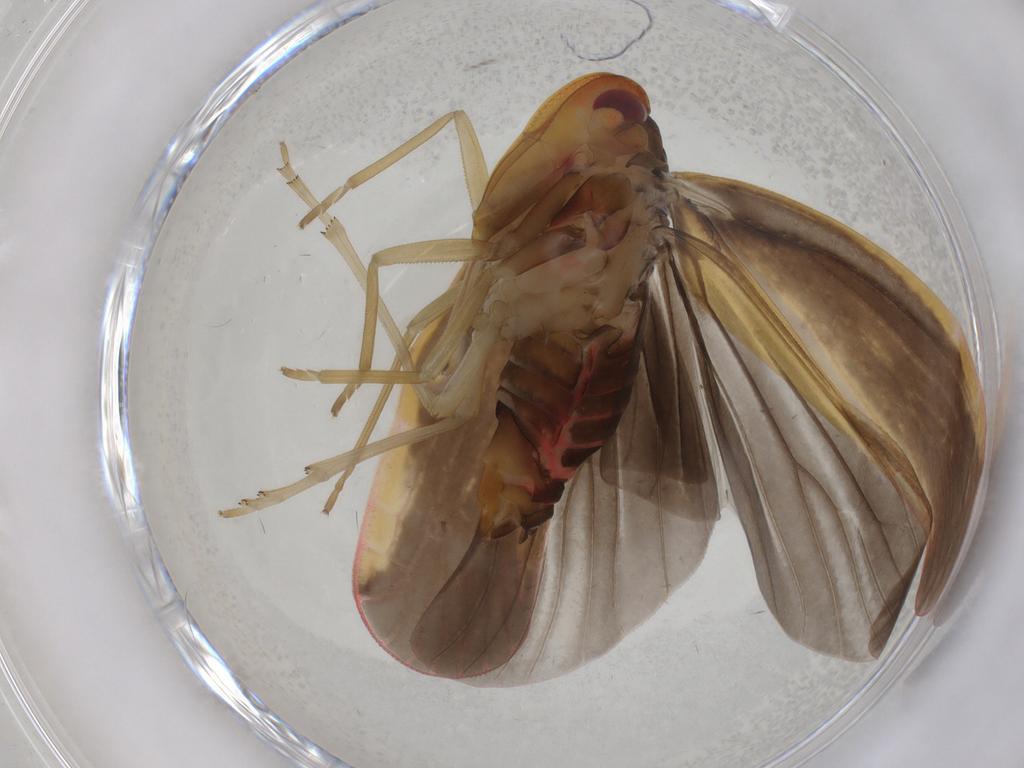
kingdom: Animalia
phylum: Arthropoda
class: Insecta
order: Hemiptera
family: Derbidae
